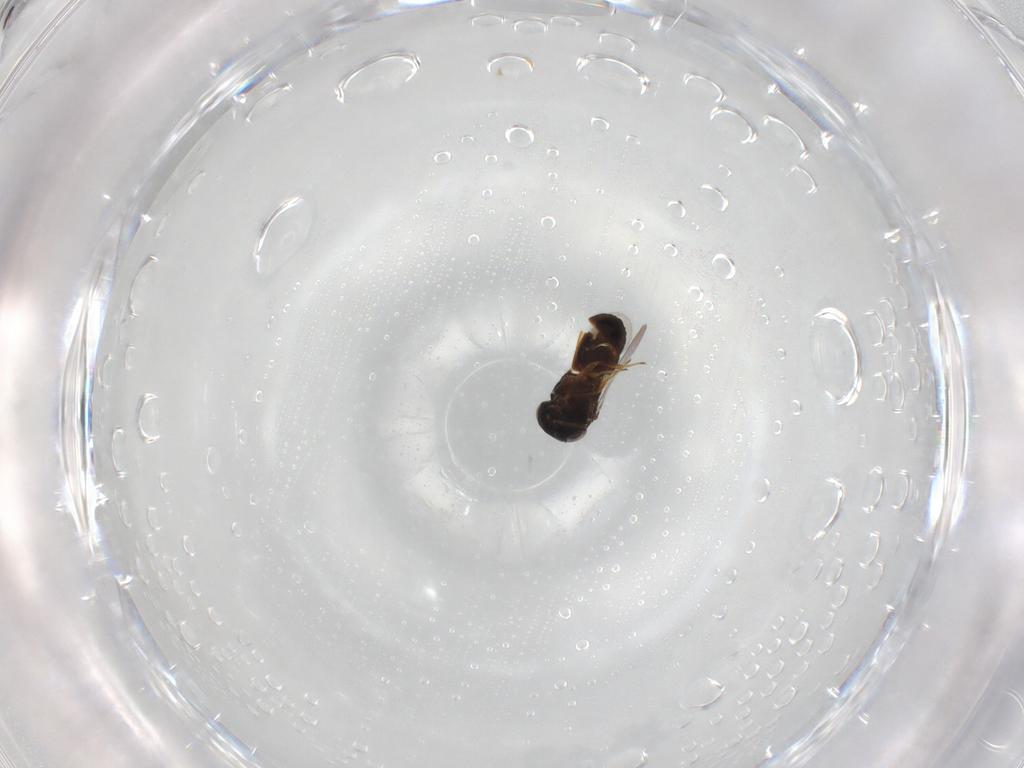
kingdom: Animalia
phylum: Arthropoda
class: Insecta
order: Hymenoptera
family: Scelionidae
